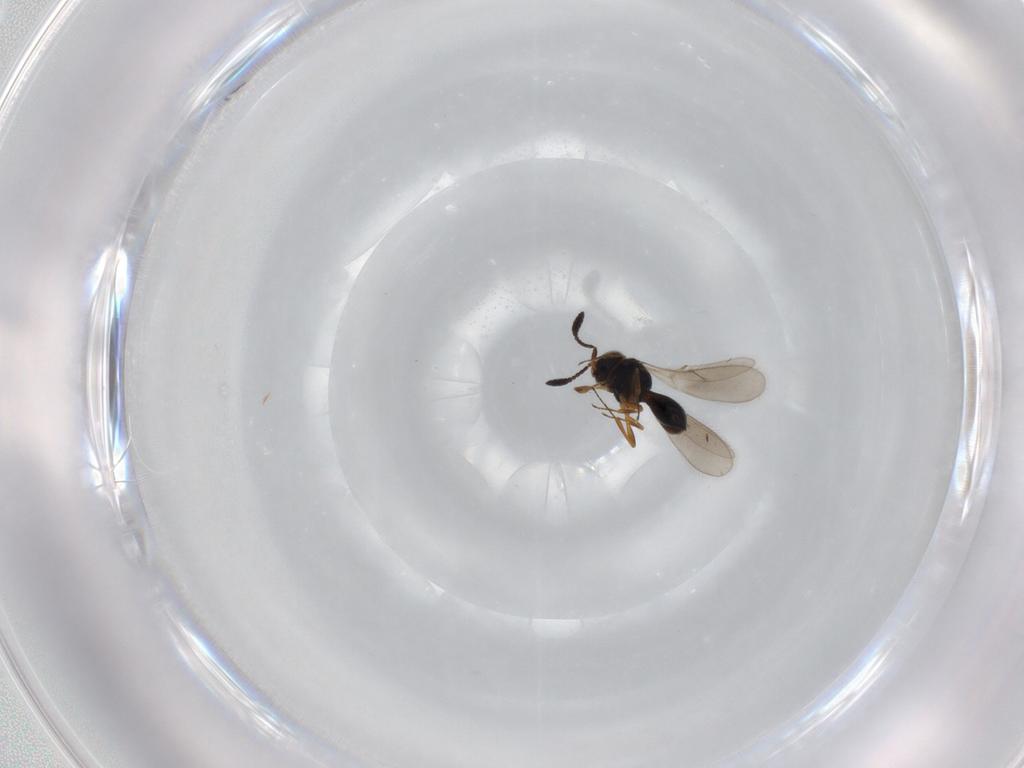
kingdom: Animalia
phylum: Arthropoda
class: Insecta
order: Hymenoptera
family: Scelionidae
